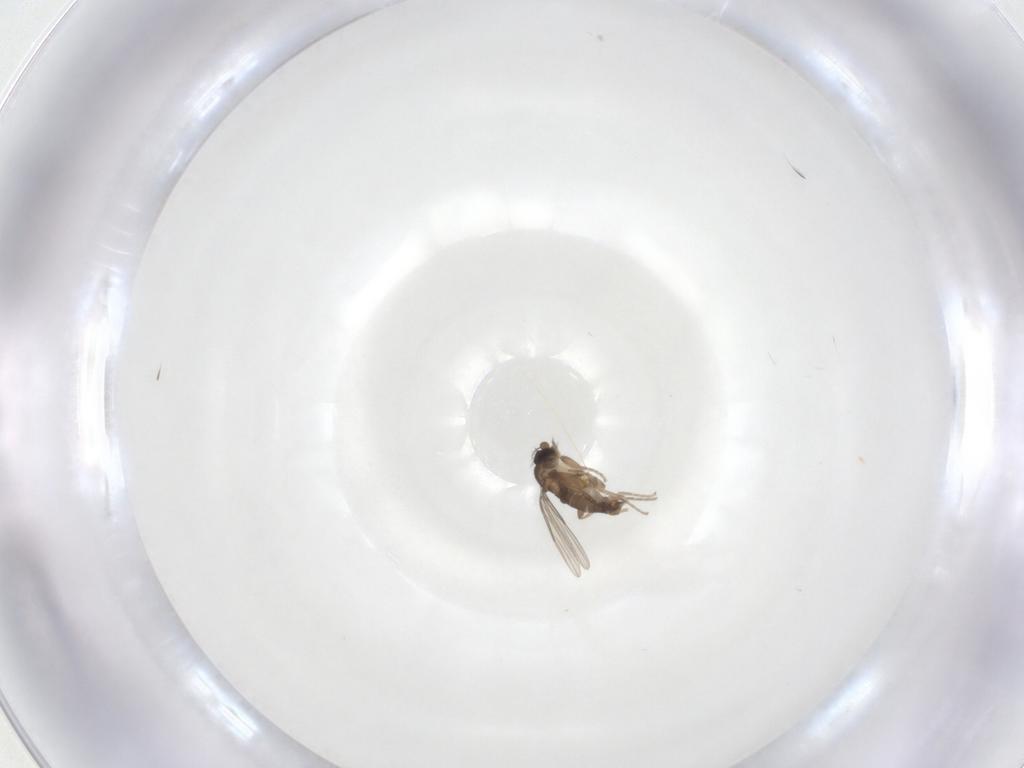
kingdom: Animalia
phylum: Arthropoda
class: Insecta
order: Diptera
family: Phoridae
